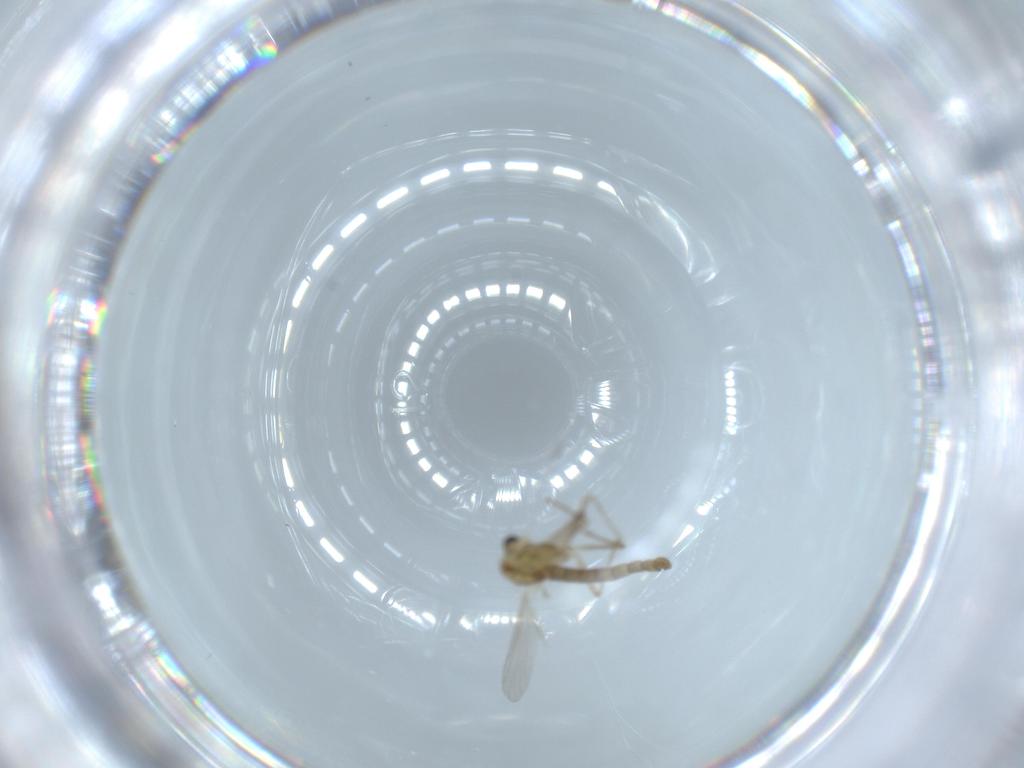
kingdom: Animalia
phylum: Arthropoda
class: Insecta
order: Diptera
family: Chironomidae
